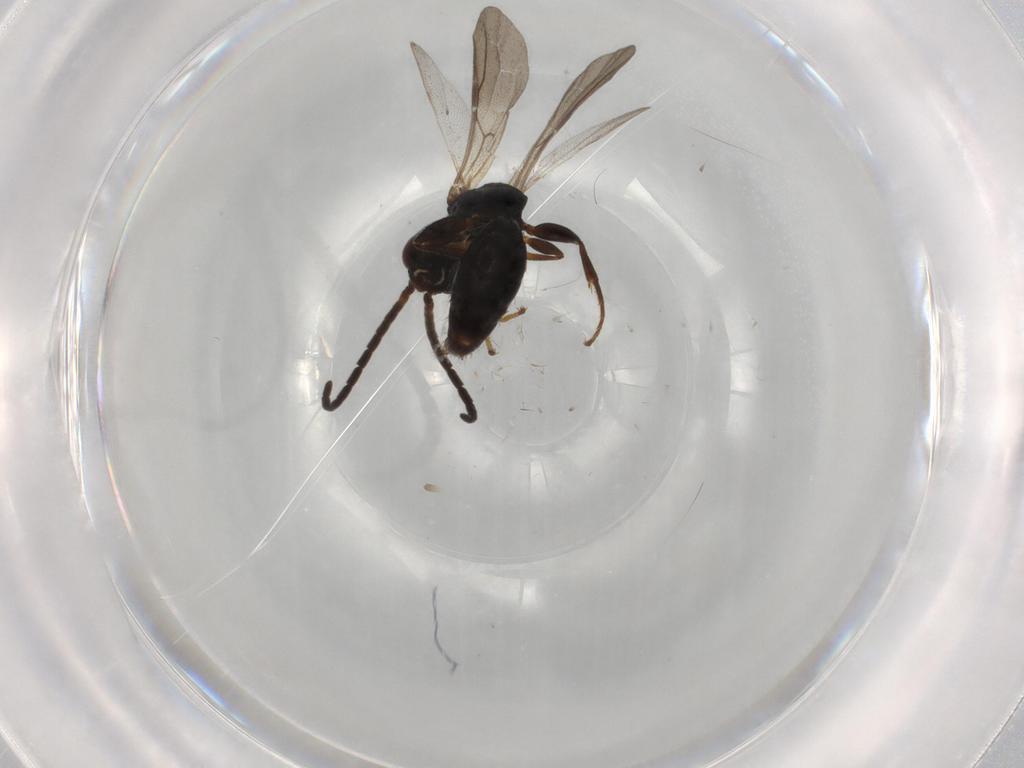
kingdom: Animalia
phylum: Arthropoda
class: Insecta
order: Hymenoptera
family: Bethylidae
